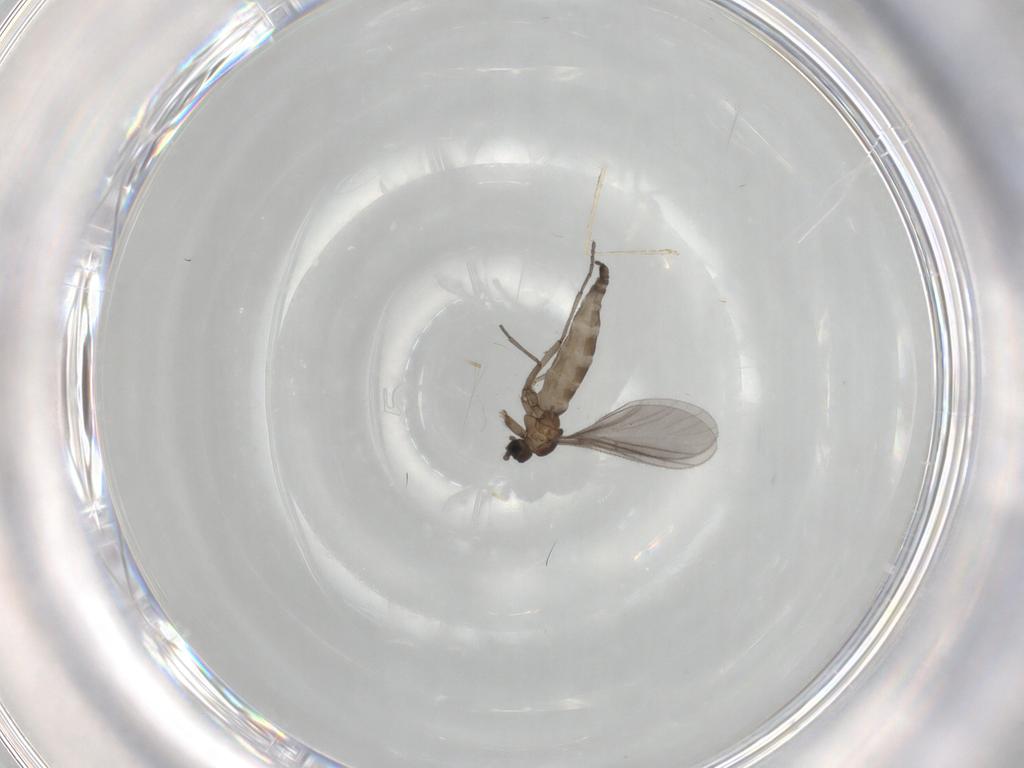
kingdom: Animalia
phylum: Arthropoda
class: Insecta
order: Diptera
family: Sciaridae
